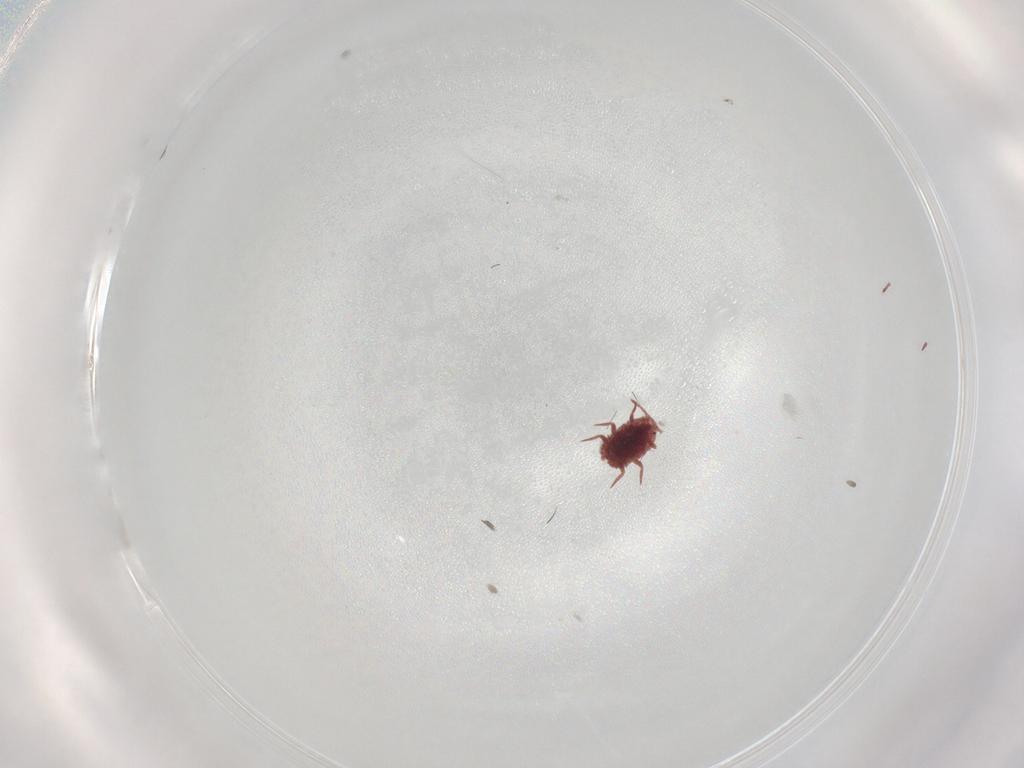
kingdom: Animalia
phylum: Arthropoda
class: Insecta
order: Hemiptera
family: Cicadellidae
